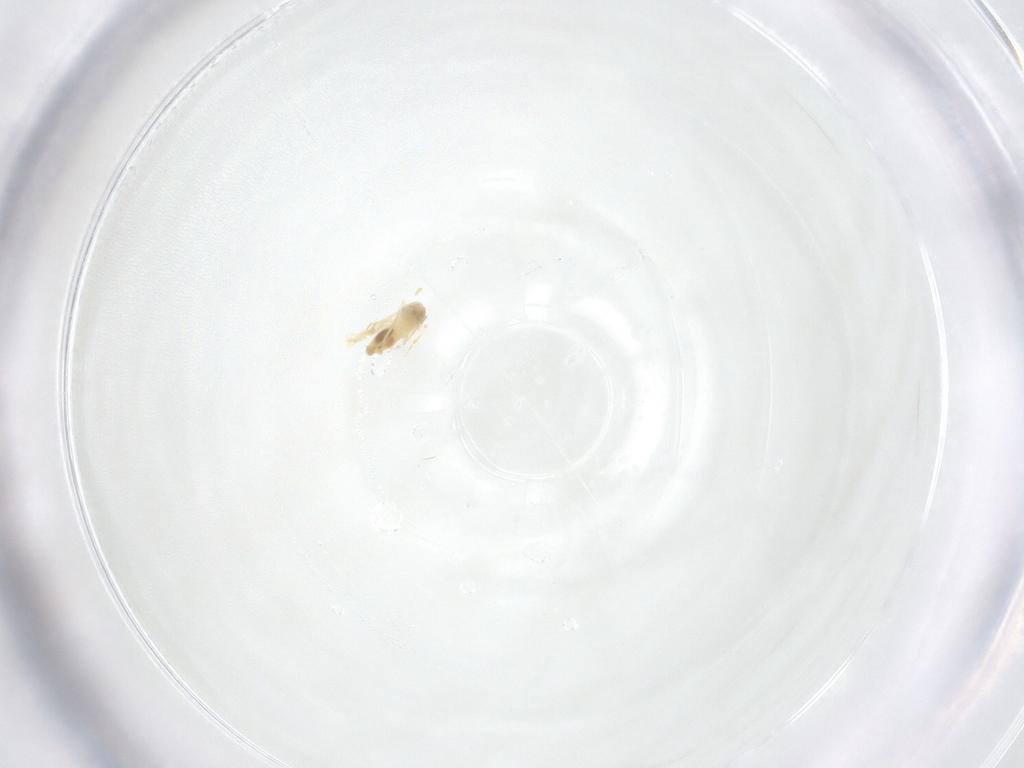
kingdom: Animalia
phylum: Arthropoda
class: Insecta
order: Hemiptera
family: Aleyrodidae
